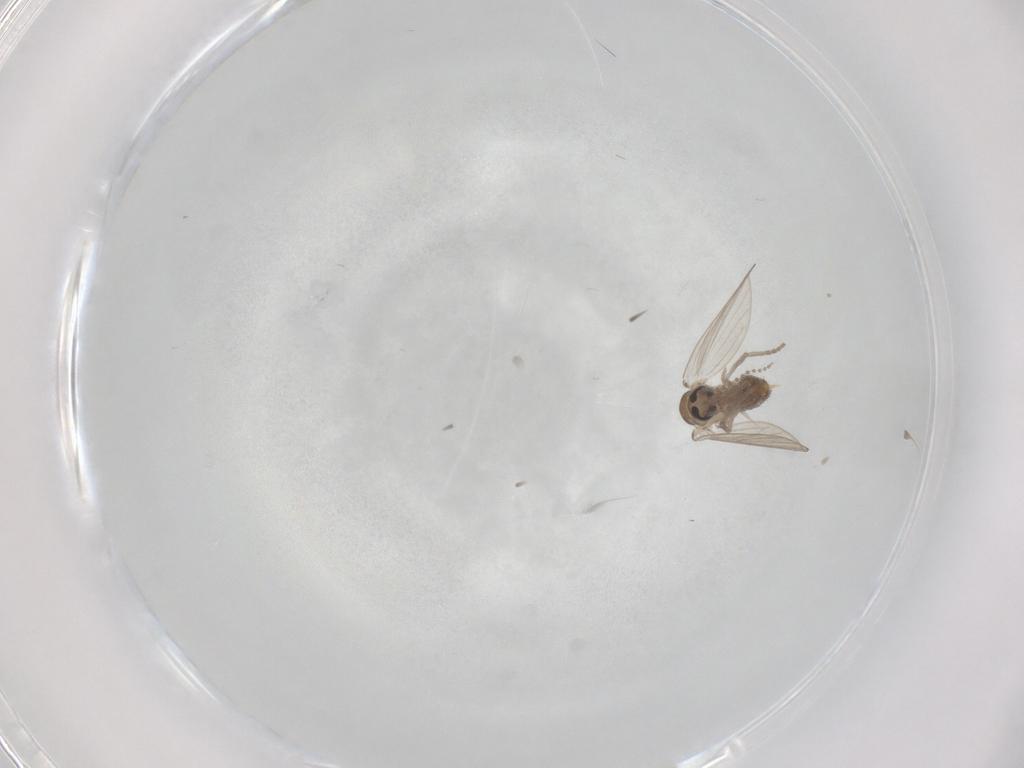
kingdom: Animalia
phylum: Arthropoda
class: Insecta
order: Diptera
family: Psychodidae
